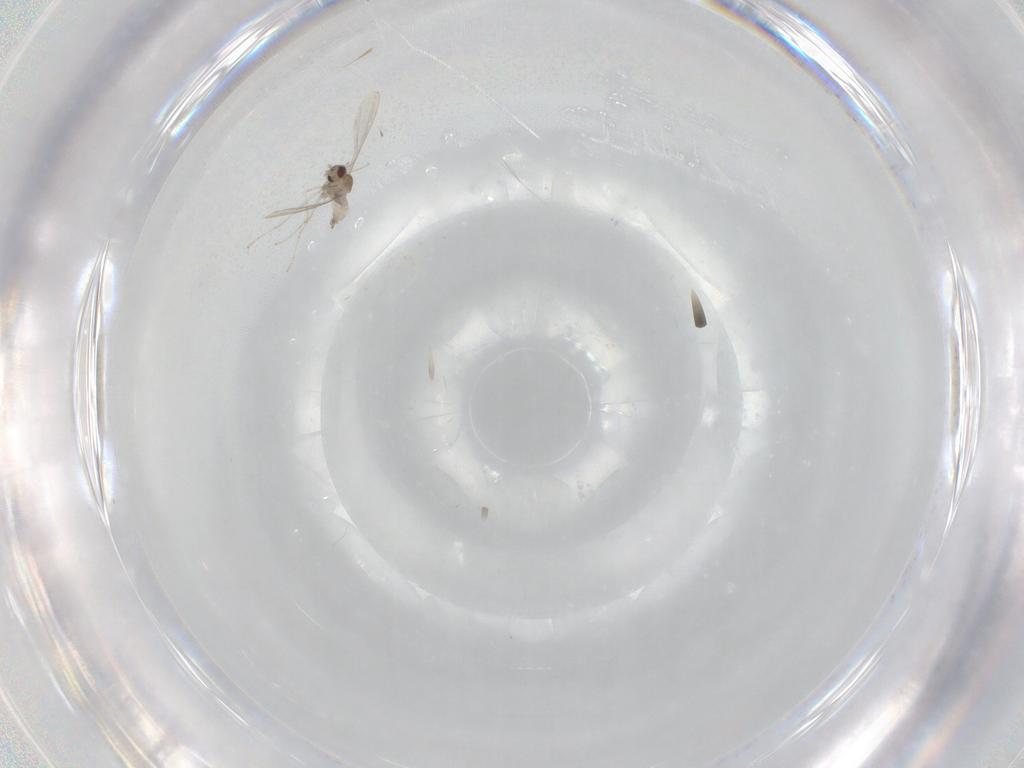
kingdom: Animalia
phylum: Arthropoda
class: Insecta
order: Diptera
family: Cecidomyiidae
